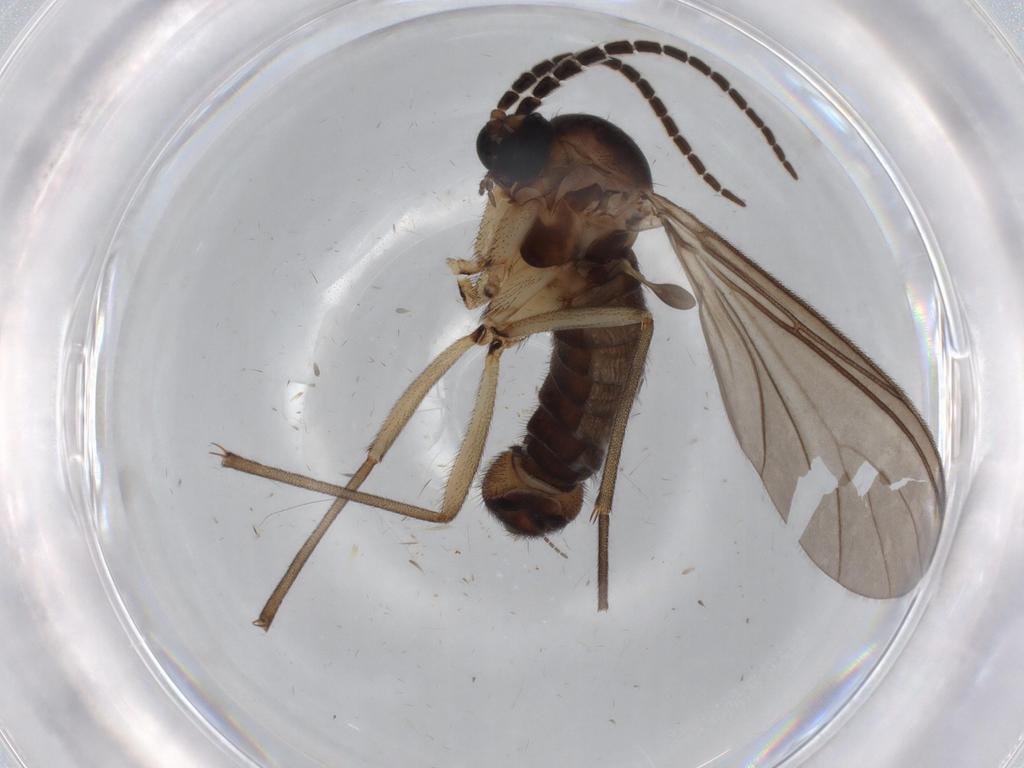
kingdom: Animalia
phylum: Arthropoda
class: Insecta
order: Diptera
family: Sciaridae
